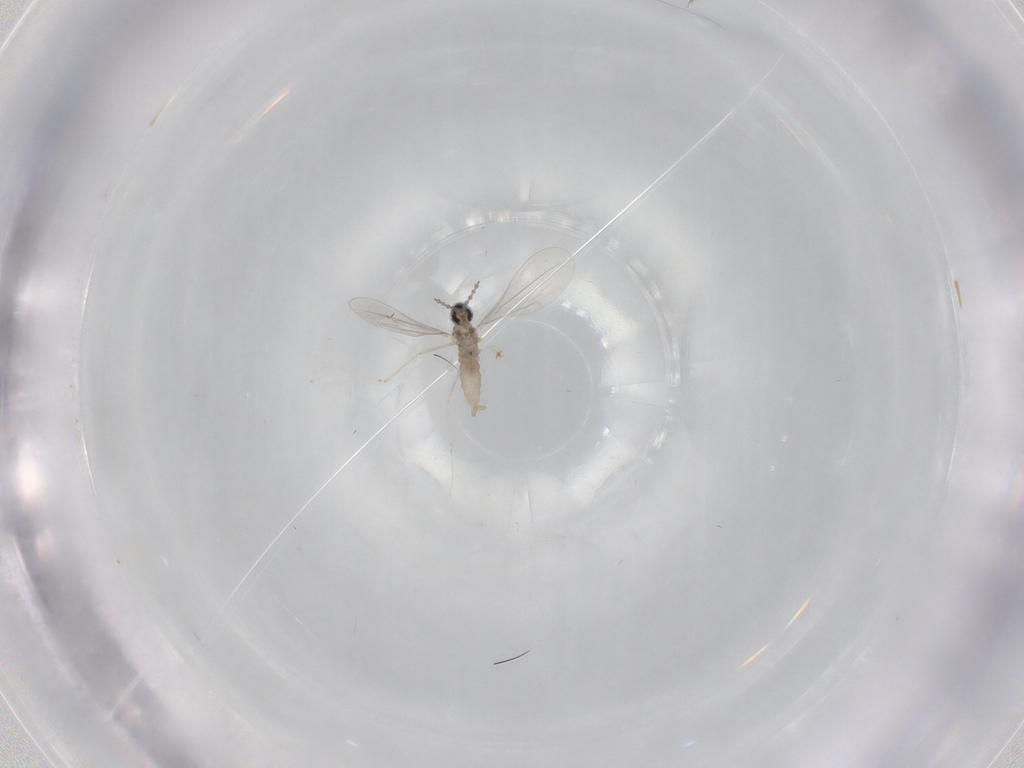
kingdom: Animalia
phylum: Arthropoda
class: Insecta
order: Diptera
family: Cecidomyiidae
